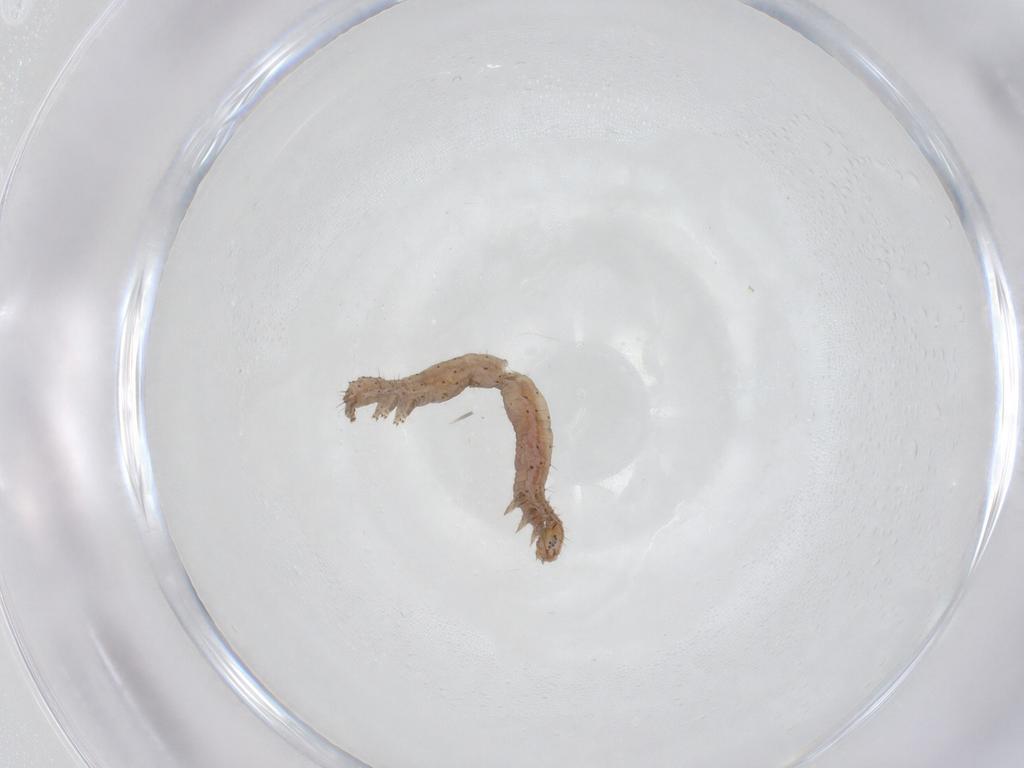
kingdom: Animalia
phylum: Arthropoda
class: Insecta
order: Lepidoptera
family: Erebidae
